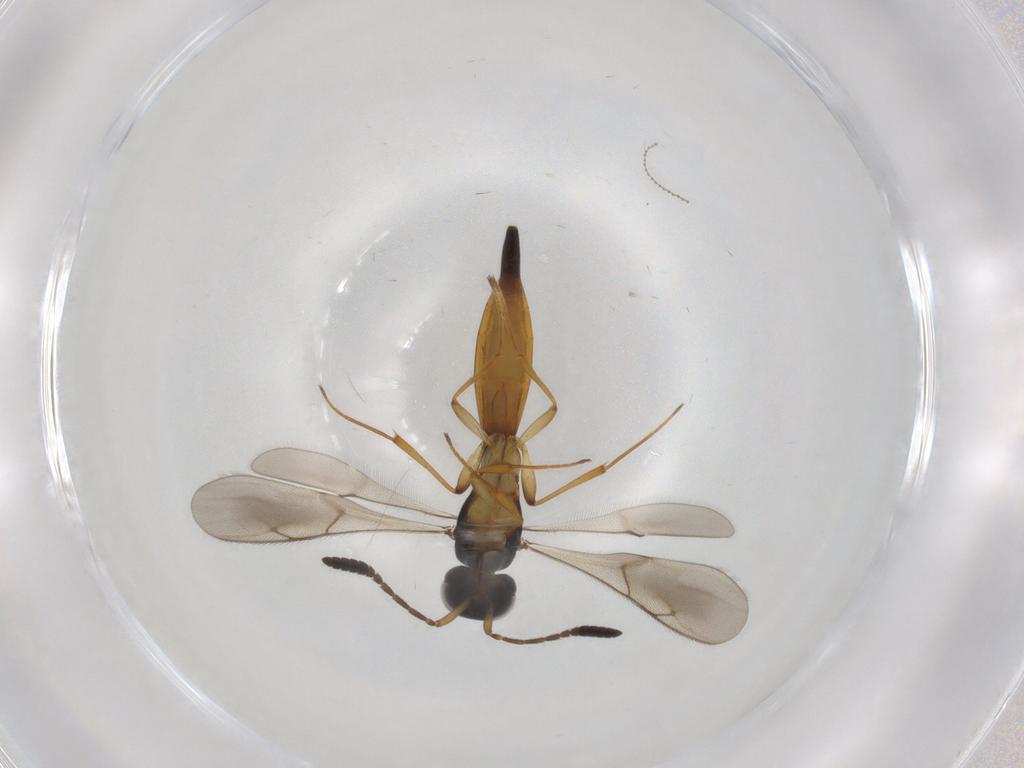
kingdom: Animalia
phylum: Arthropoda
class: Insecta
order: Hymenoptera
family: Scelionidae
